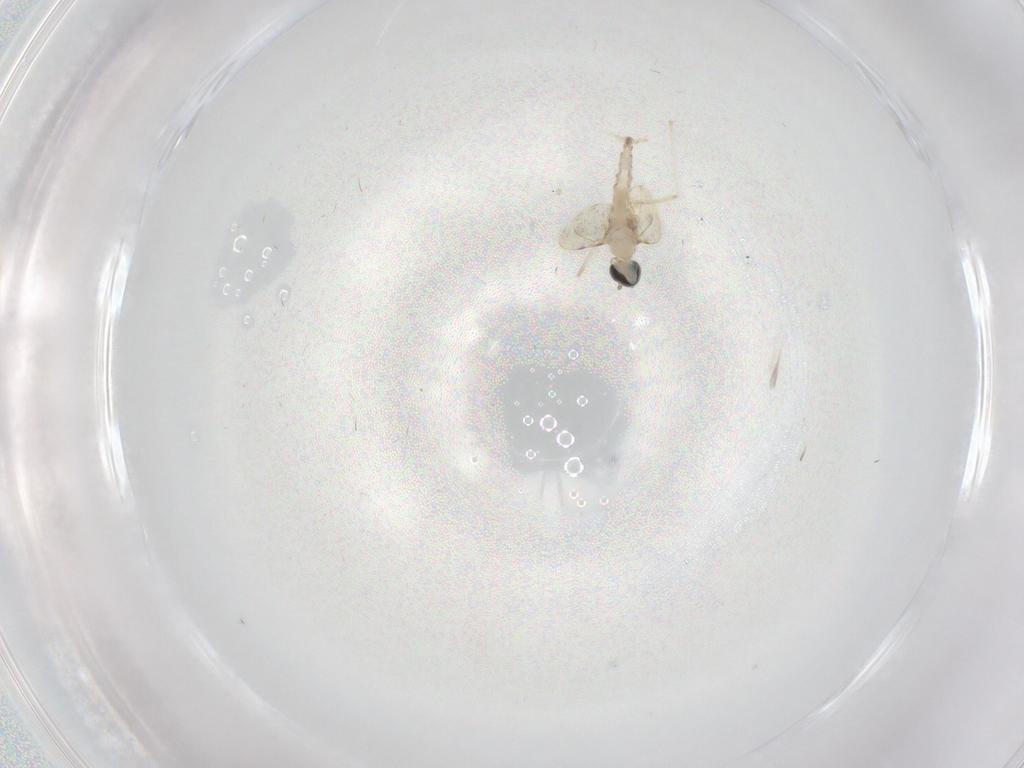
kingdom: Animalia
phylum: Arthropoda
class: Insecta
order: Diptera
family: Cecidomyiidae
